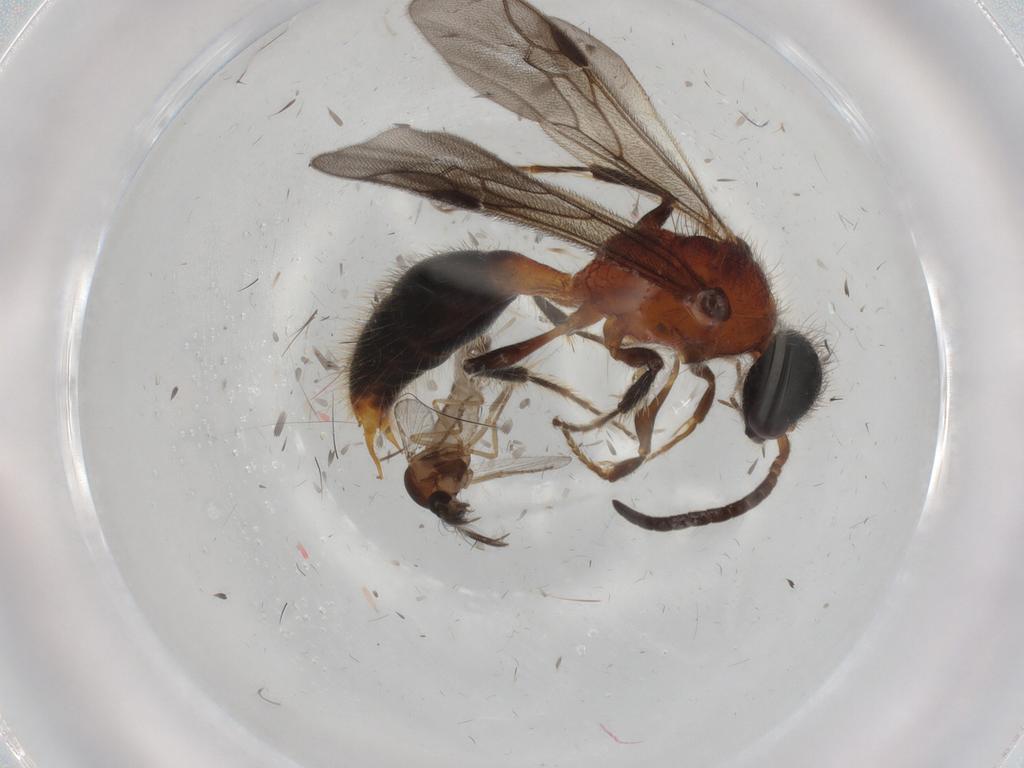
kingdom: Animalia
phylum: Arthropoda
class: Insecta
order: Hymenoptera
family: Mutillidae
